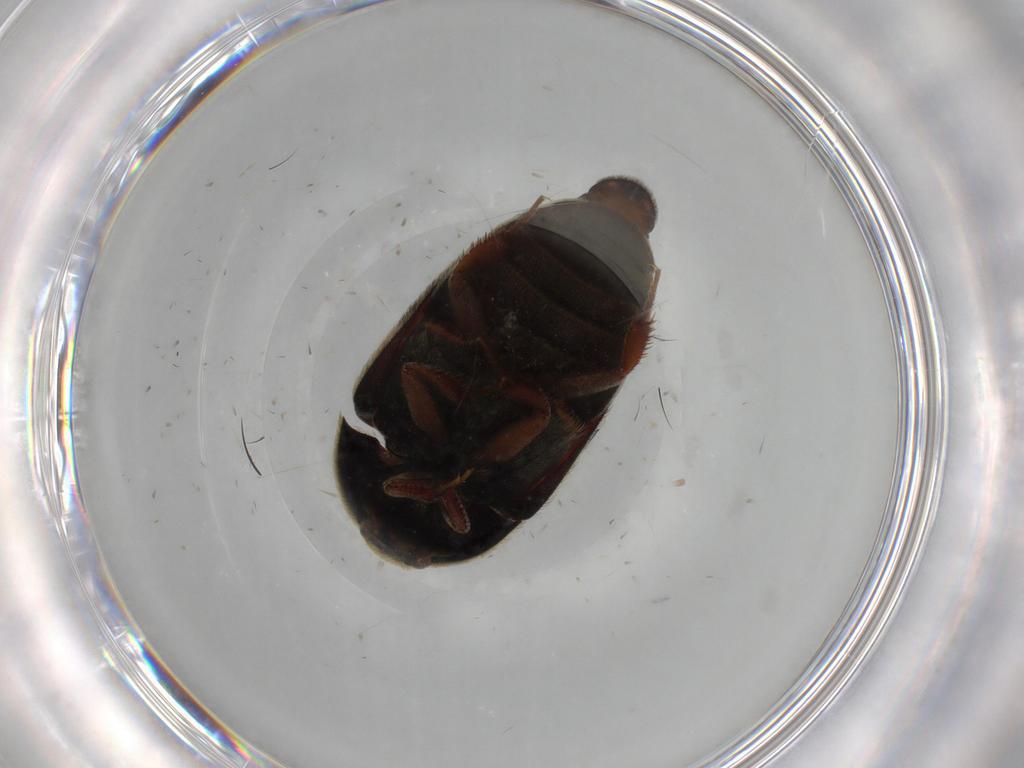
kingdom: Animalia
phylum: Arthropoda
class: Insecta
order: Coleoptera
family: Dermestidae
